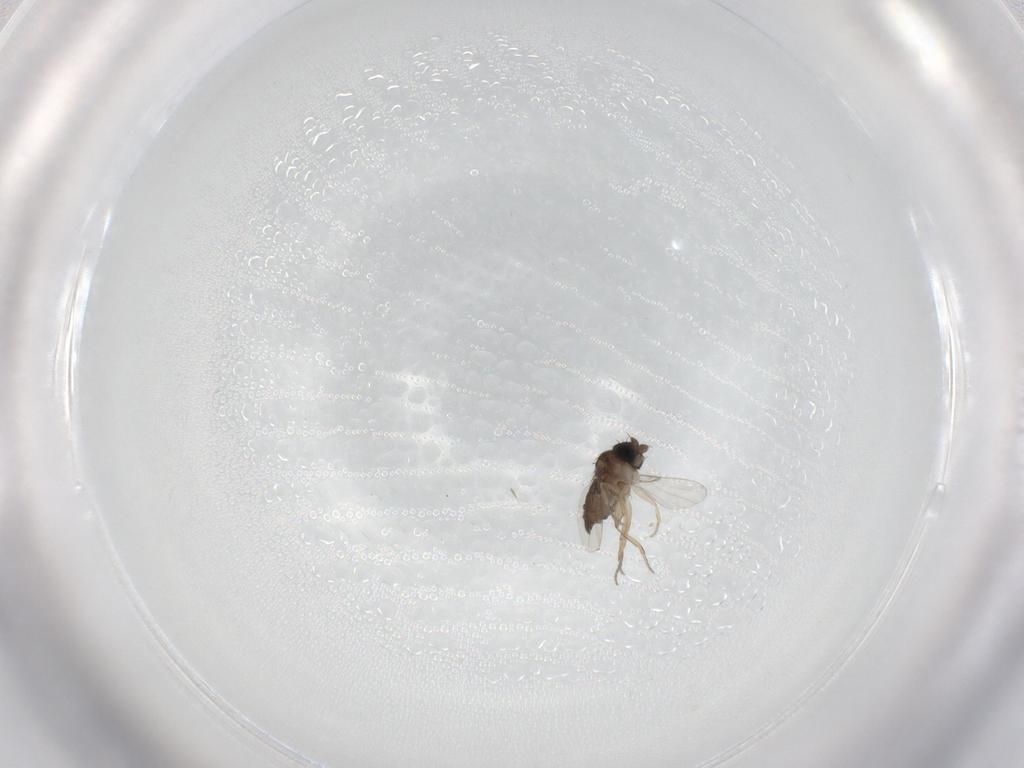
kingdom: Animalia
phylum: Arthropoda
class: Insecta
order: Diptera
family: Phoridae
